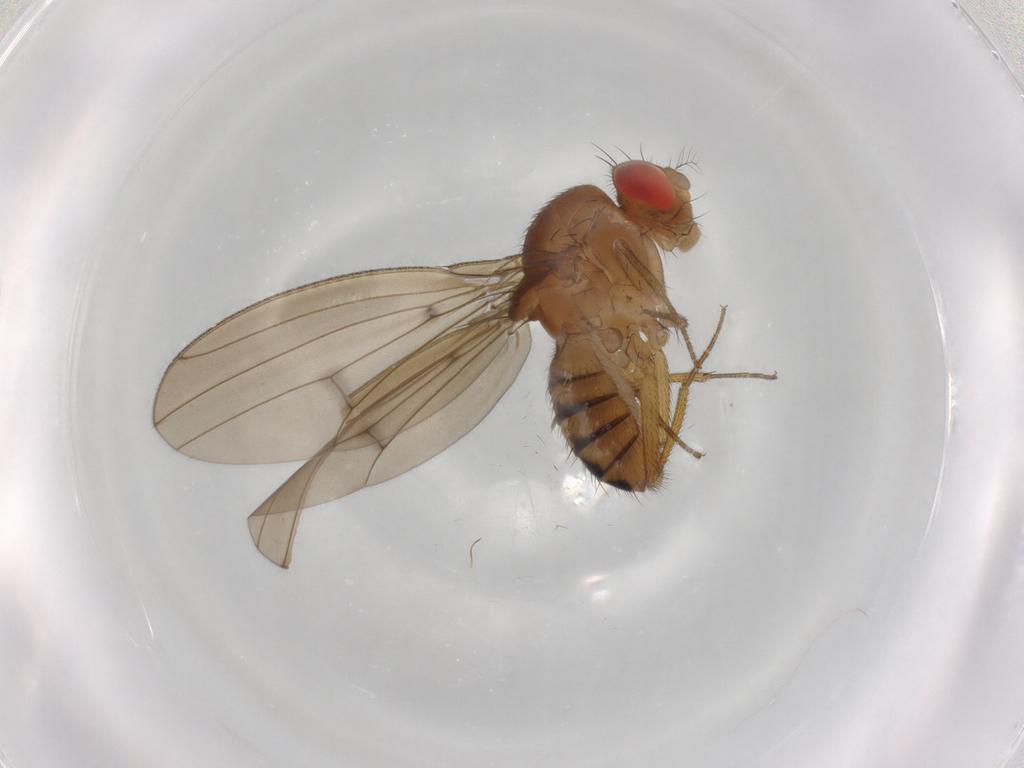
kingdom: Animalia
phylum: Arthropoda
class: Insecta
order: Diptera
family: Drosophilidae
